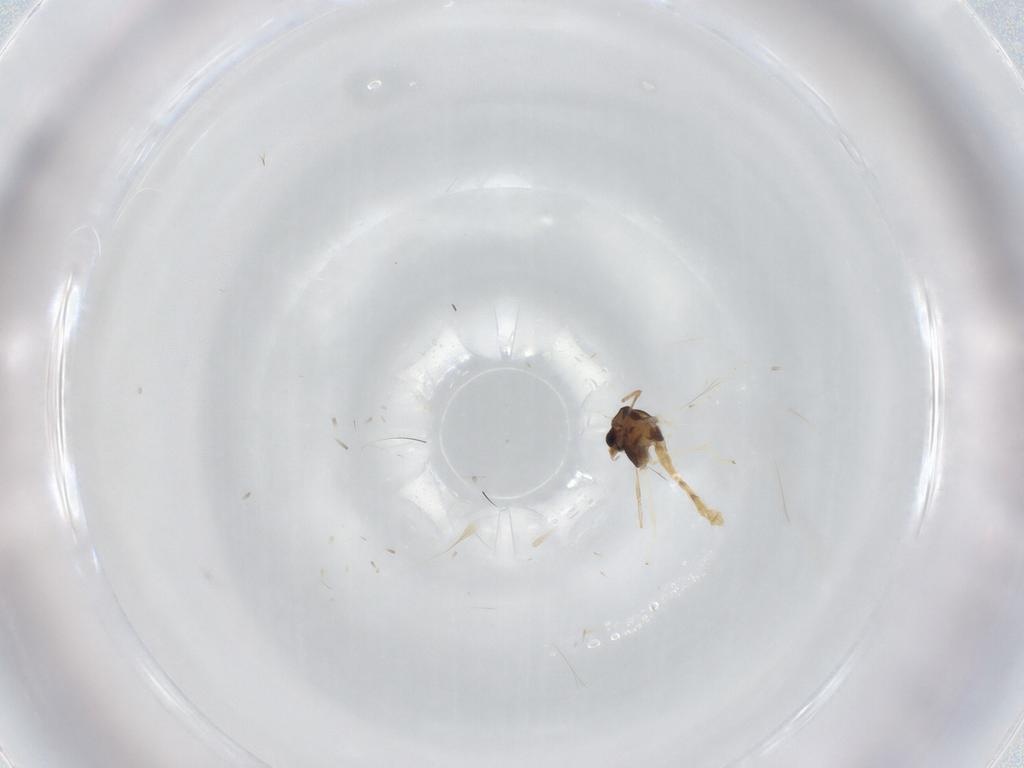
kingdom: Animalia
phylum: Arthropoda
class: Insecta
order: Diptera
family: Chironomidae
